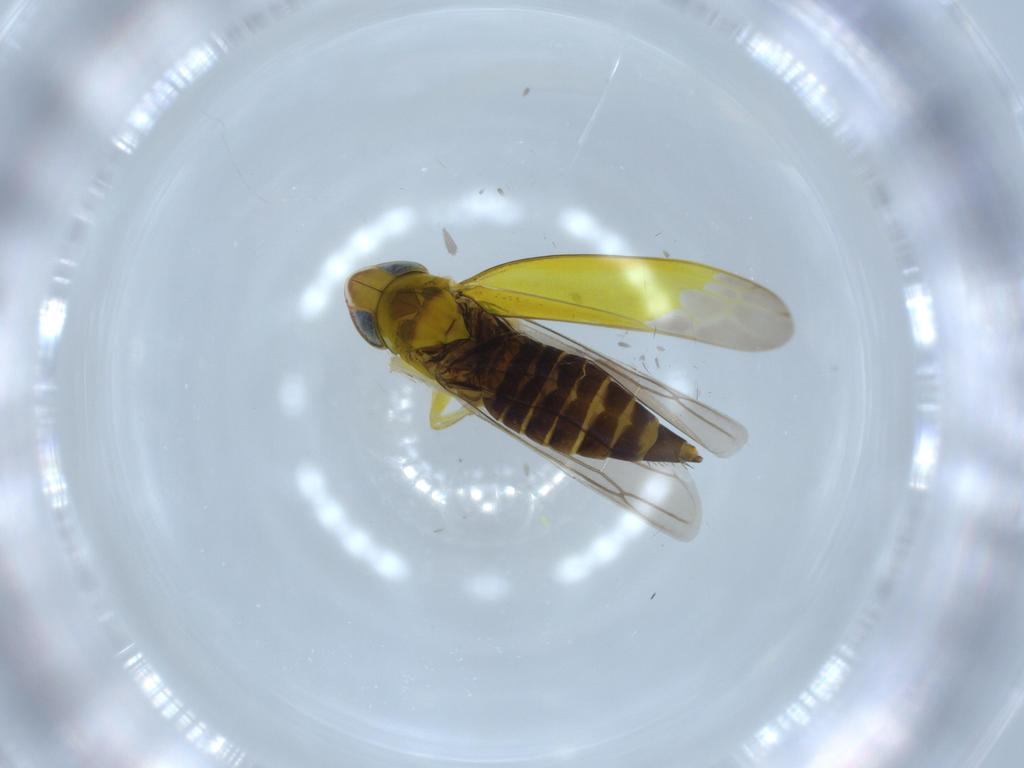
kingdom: Animalia
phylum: Arthropoda
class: Insecta
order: Hemiptera
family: Cicadellidae
